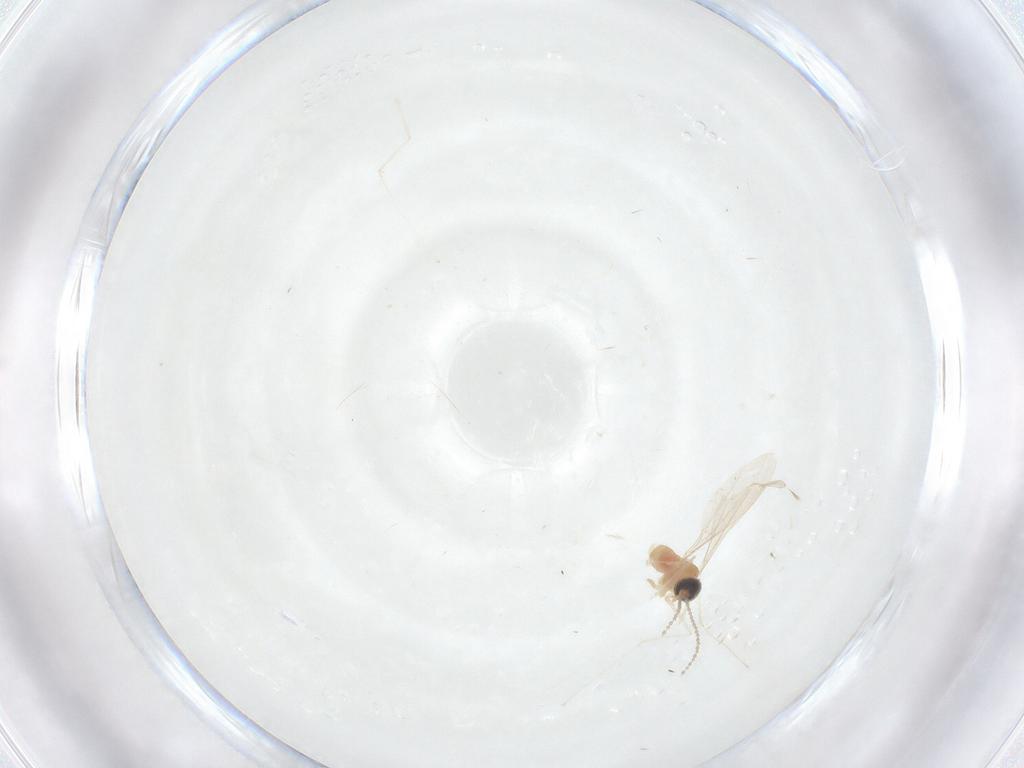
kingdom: Animalia
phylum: Arthropoda
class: Insecta
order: Diptera
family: Cecidomyiidae
